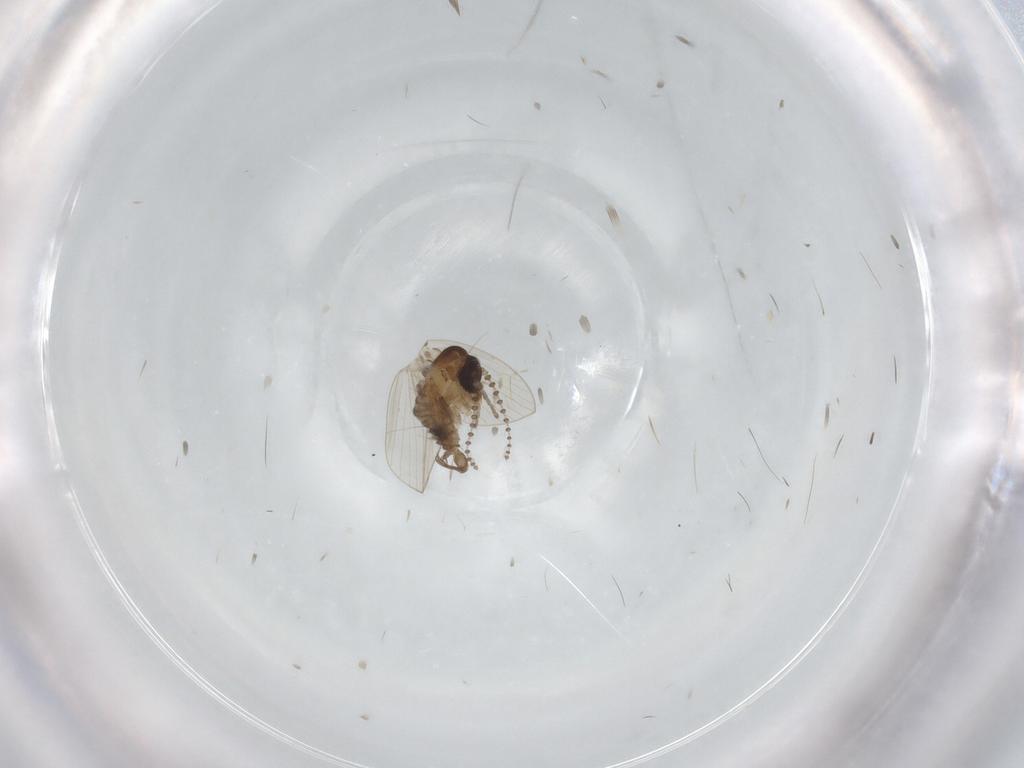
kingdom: Animalia
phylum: Arthropoda
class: Insecta
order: Diptera
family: Psychodidae
